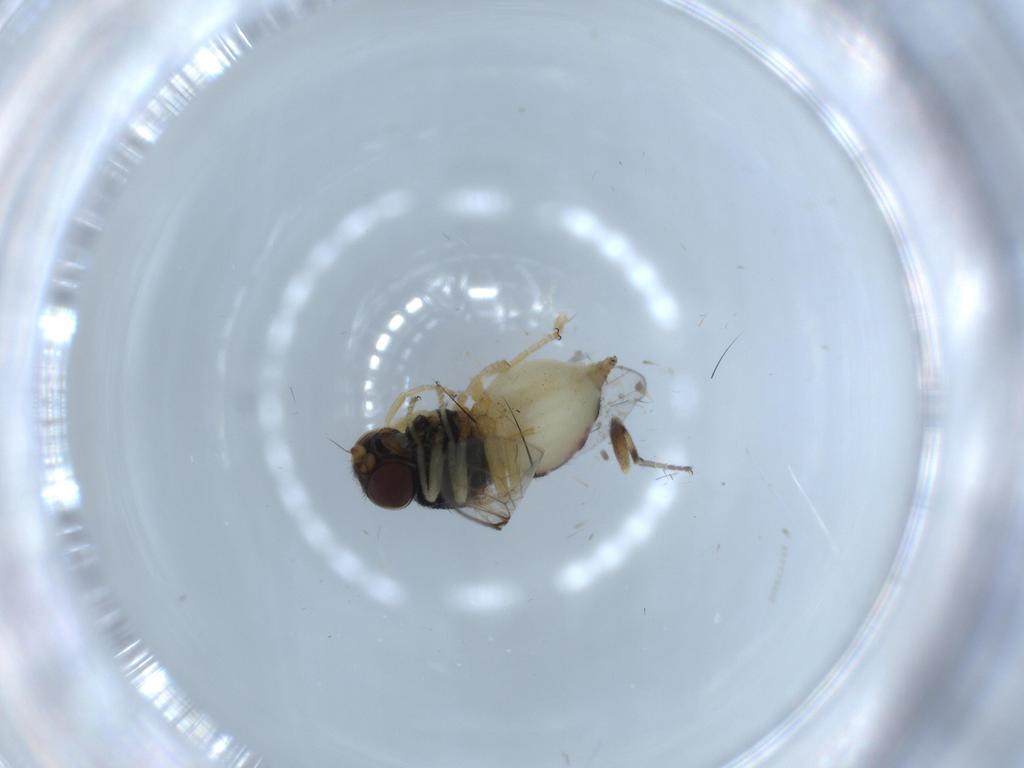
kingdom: Animalia
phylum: Arthropoda
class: Insecta
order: Diptera
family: Chloropidae
